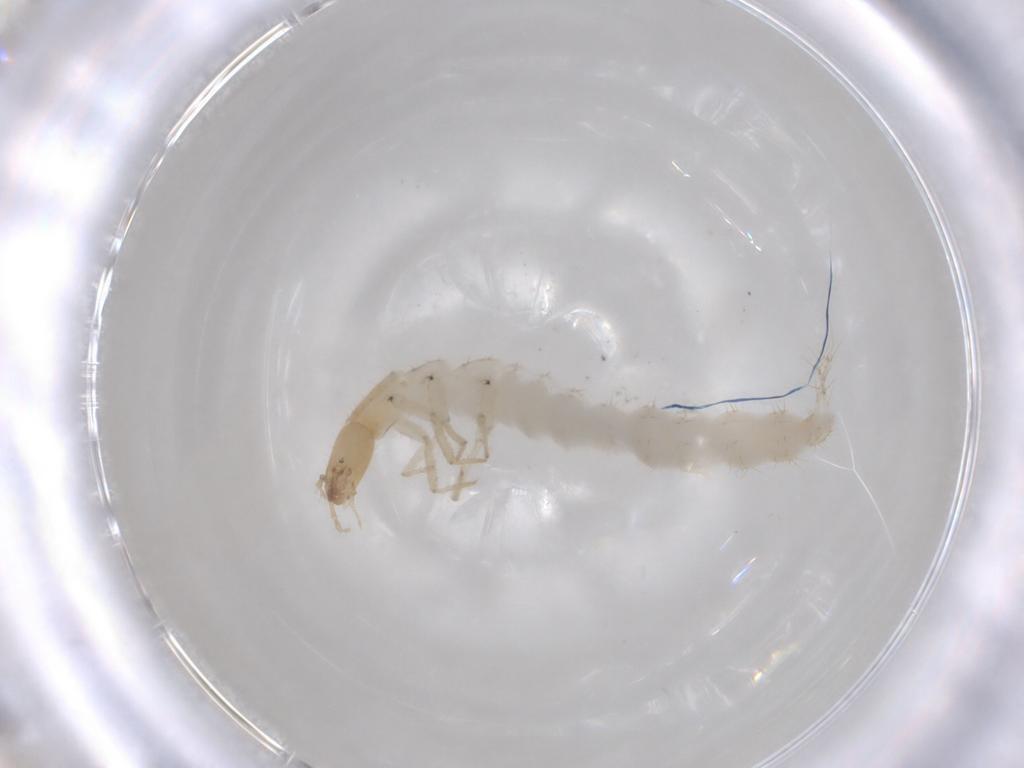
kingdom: Animalia
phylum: Arthropoda
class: Insecta
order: Coleoptera
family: Staphylinidae
